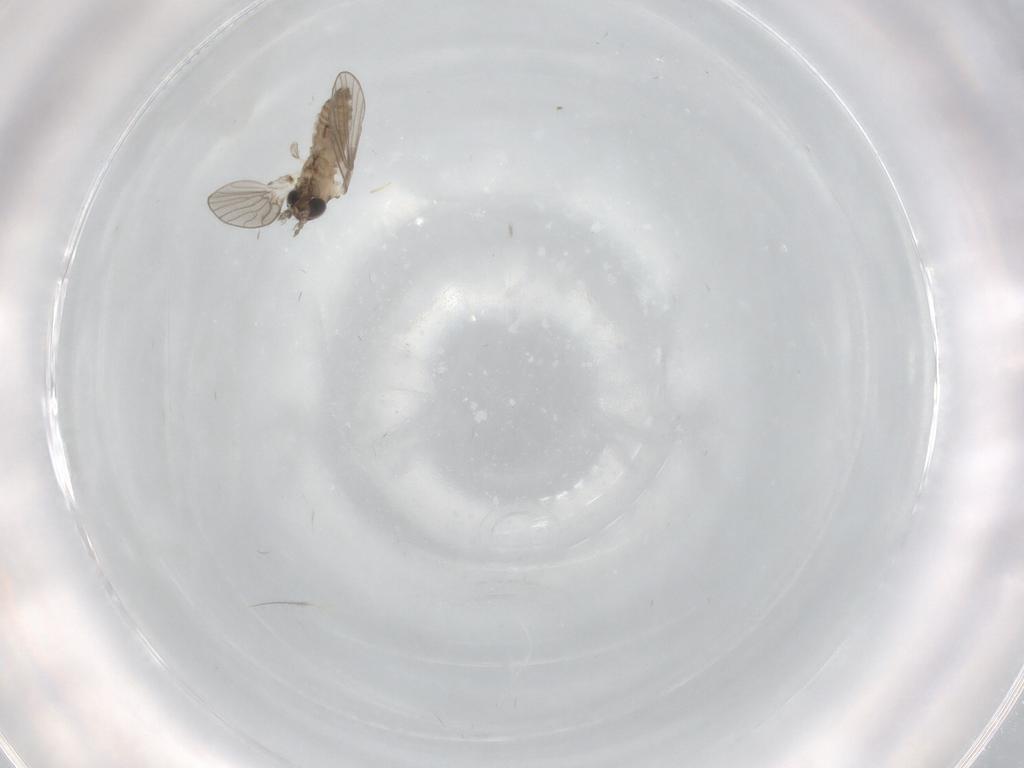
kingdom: Animalia
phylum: Arthropoda
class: Insecta
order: Diptera
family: Psychodidae
